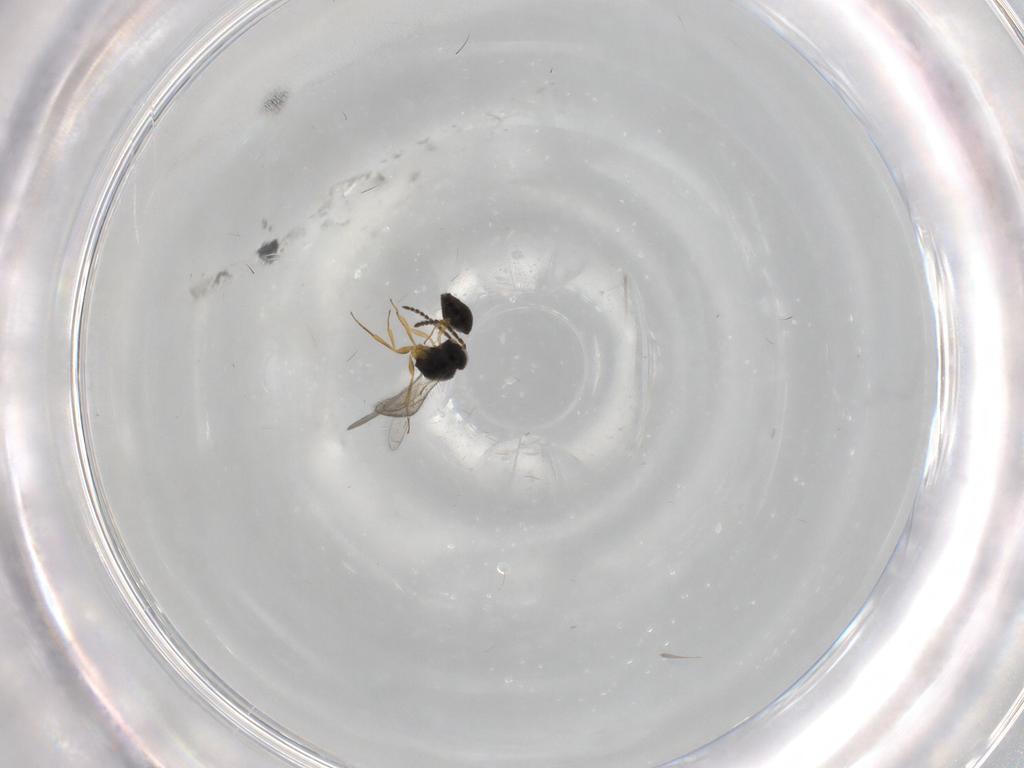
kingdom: Animalia
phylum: Arthropoda
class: Insecta
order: Hymenoptera
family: Scelionidae
